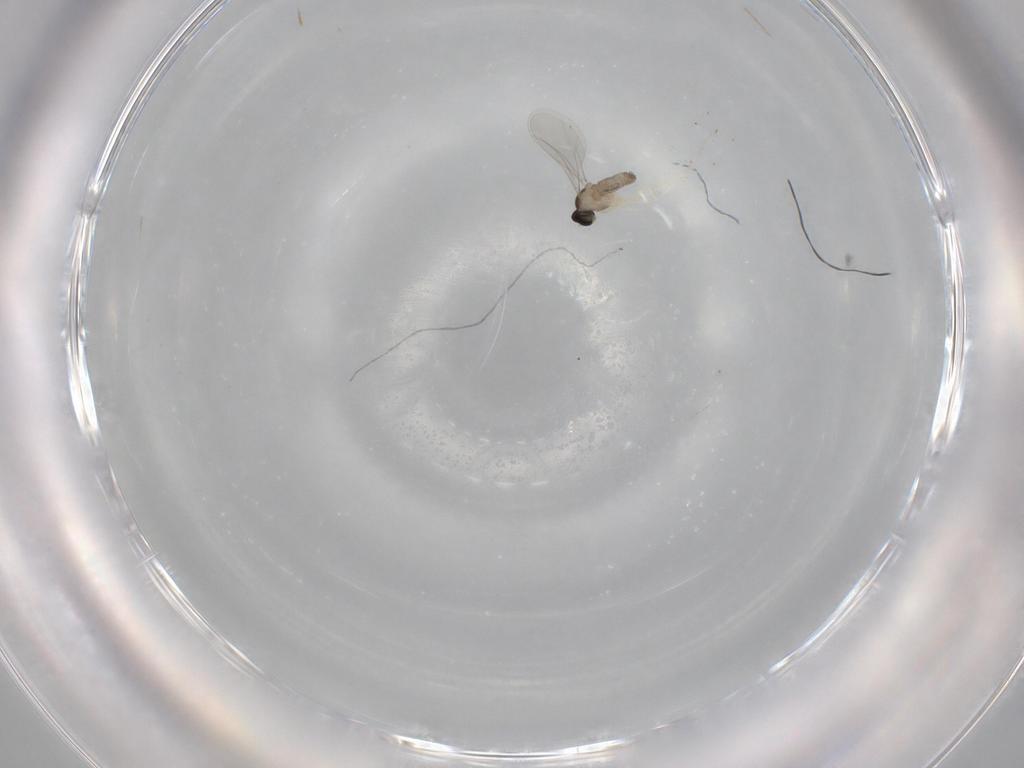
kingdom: Animalia
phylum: Arthropoda
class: Insecta
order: Diptera
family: Cecidomyiidae
